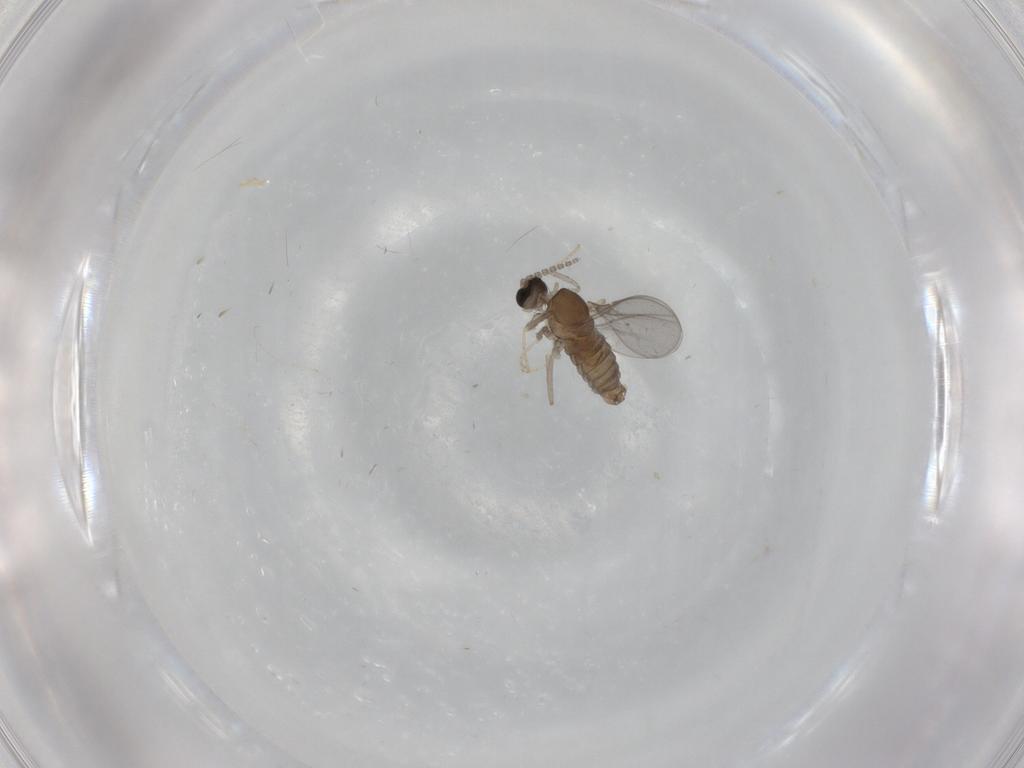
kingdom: Animalia
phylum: Arthropoda
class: Insecta
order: Diptera
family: Cecidomyiidae
